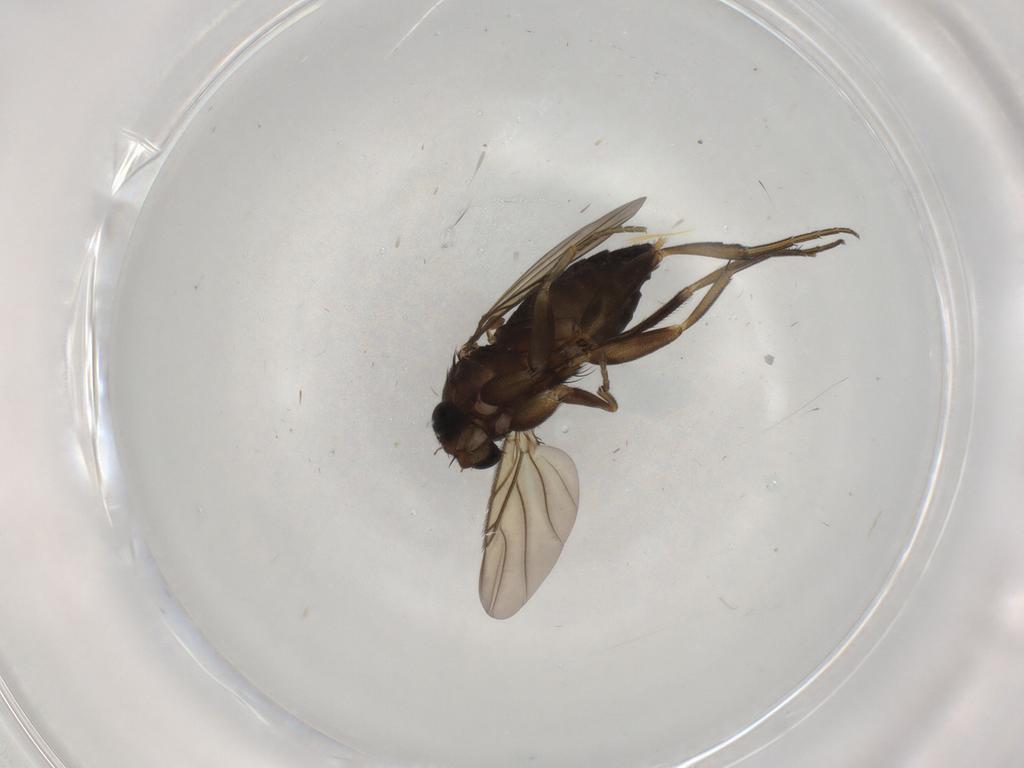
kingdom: Animalia
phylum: Arthropoda
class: Insecta
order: Diptera
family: Phoridae
